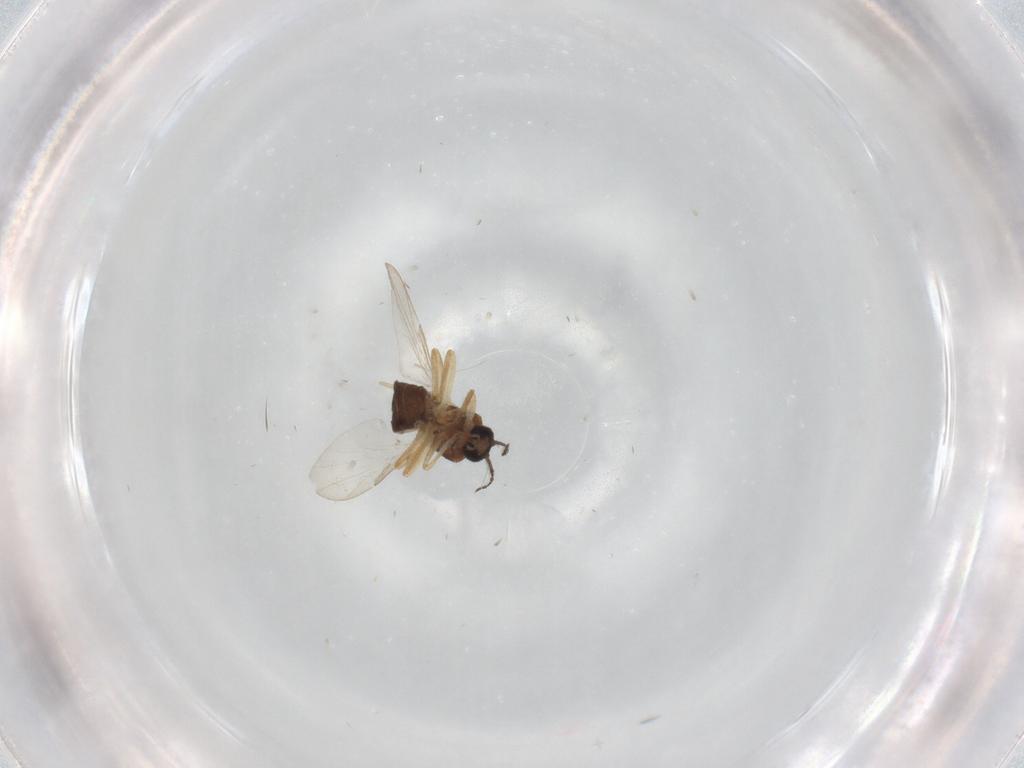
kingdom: Animalia
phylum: Arthropoda
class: Insecta
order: Diptera
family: Ceratopogonidae
